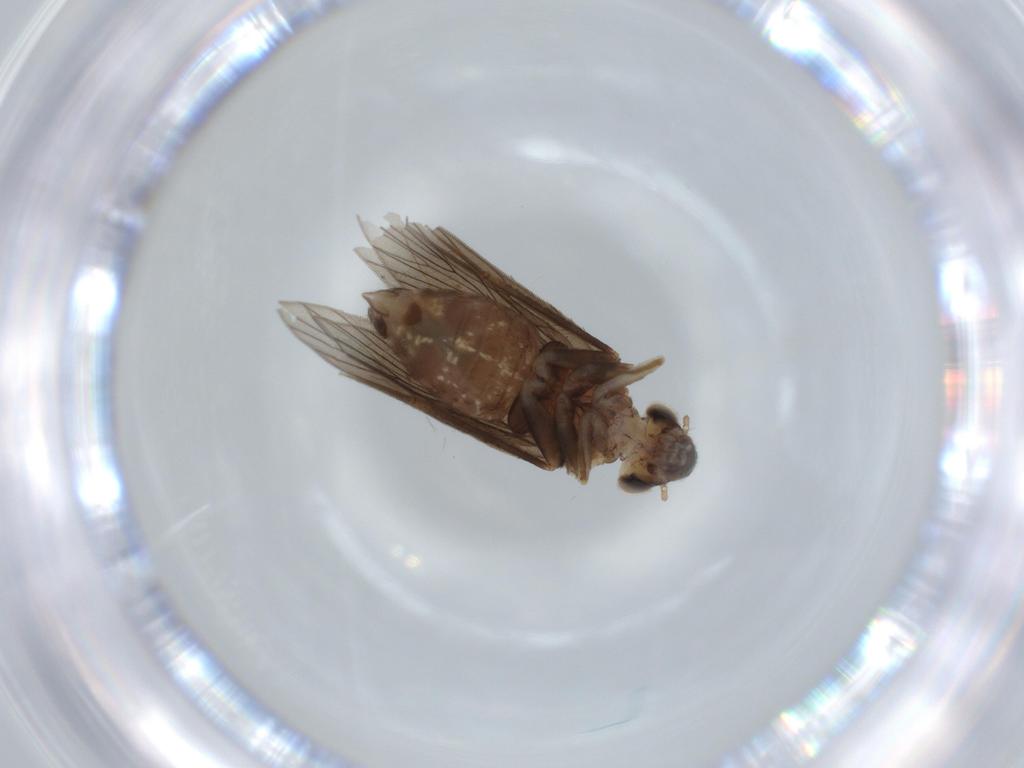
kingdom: Animalia
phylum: Arthropoda
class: Insecta
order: Psocodea
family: Lepidopsocidae
